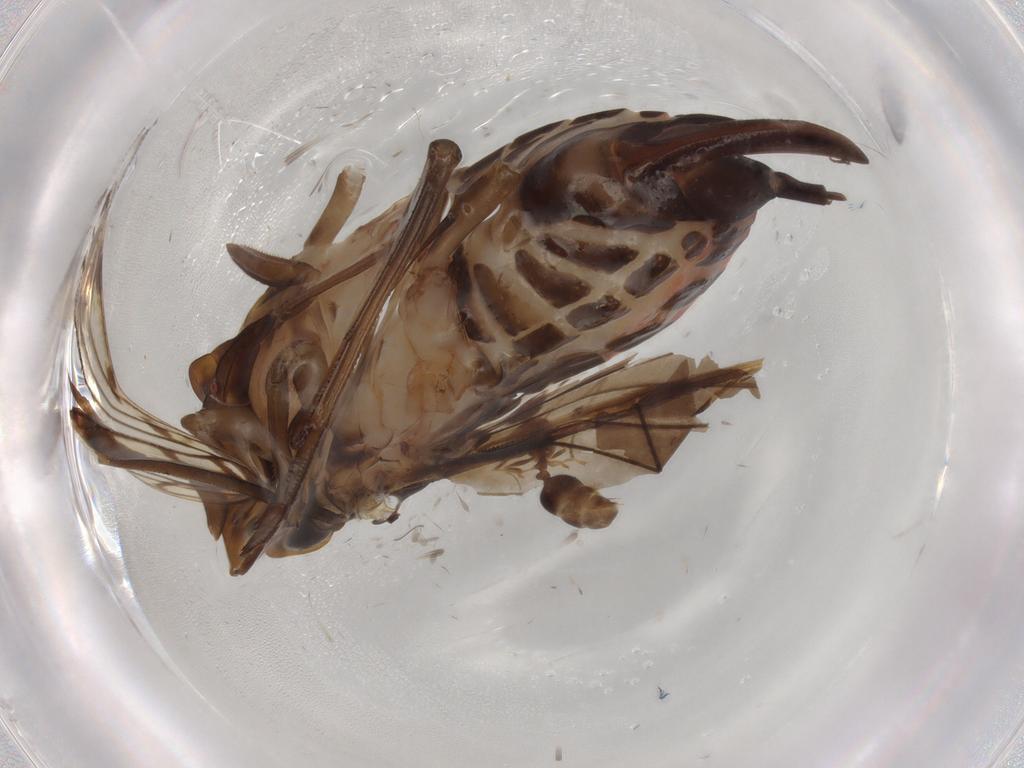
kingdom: Animalia
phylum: Arthropoda
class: Insecta
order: Hemiptera
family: Cixiidae
